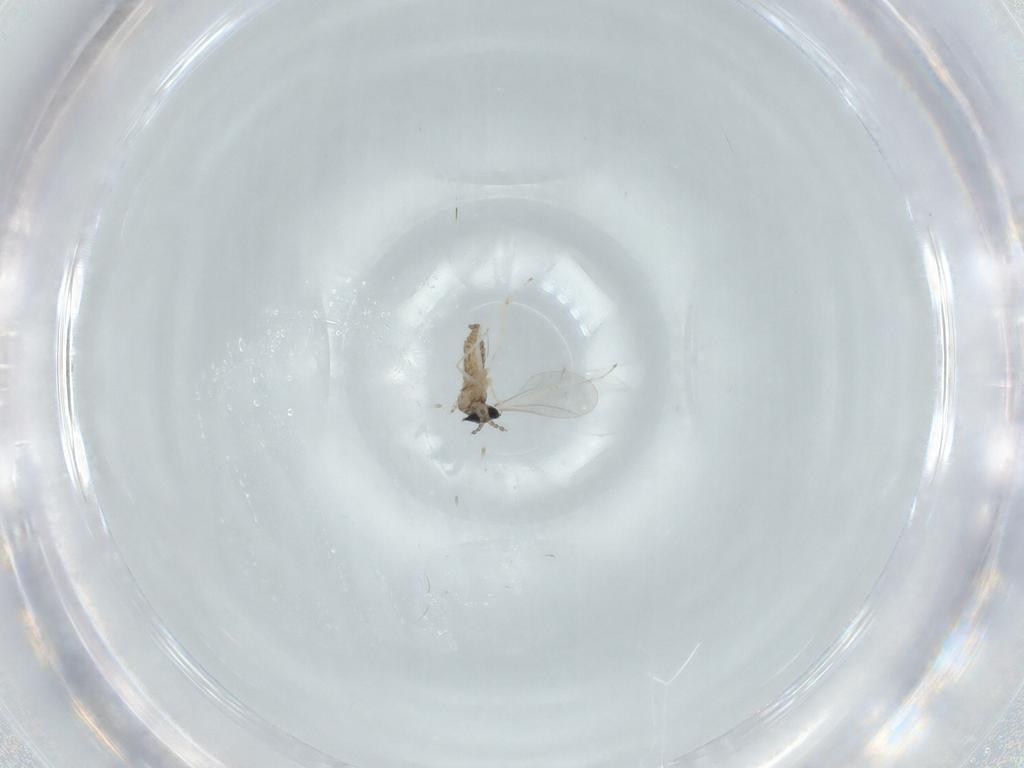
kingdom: Animalia
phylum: Arthropoda
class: Insecta
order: Diptera
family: Cecidomyiidae
